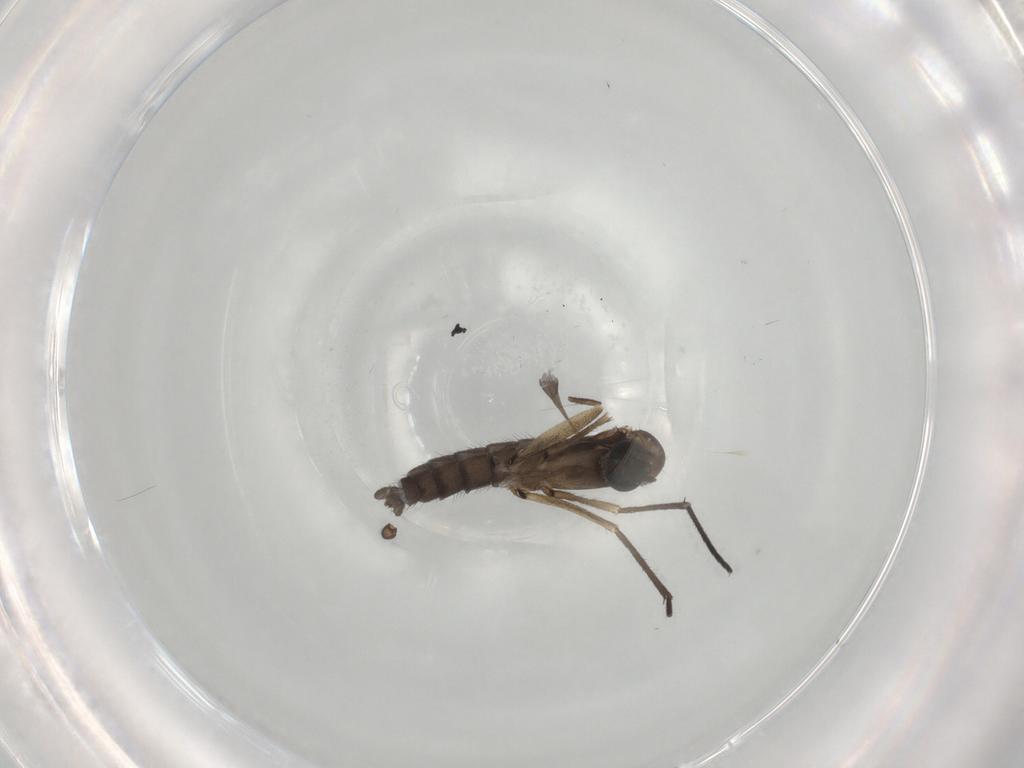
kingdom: Animalia
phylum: Arthropoda
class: Insecta
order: Diptera
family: Sciaridae
